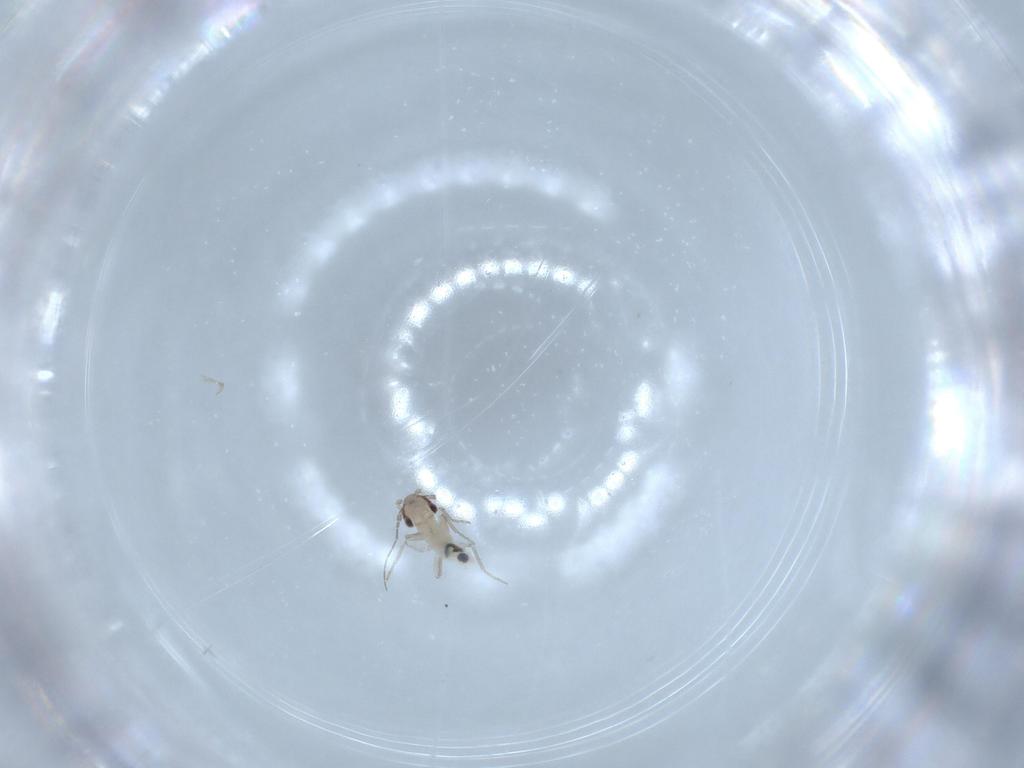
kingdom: Animalia
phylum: Arthropoda
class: Insecta
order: Psocodea
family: Lepidopsocidae
